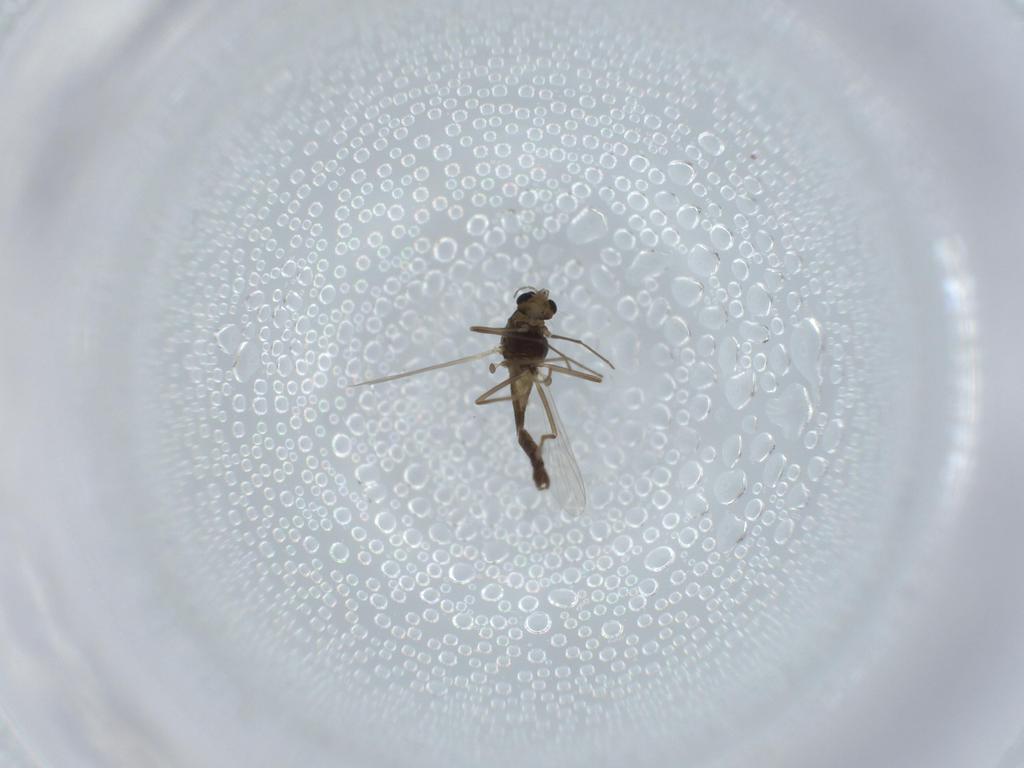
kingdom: Animalia
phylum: Arthropoda
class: Insecta
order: Diptera
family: Chironomidae
